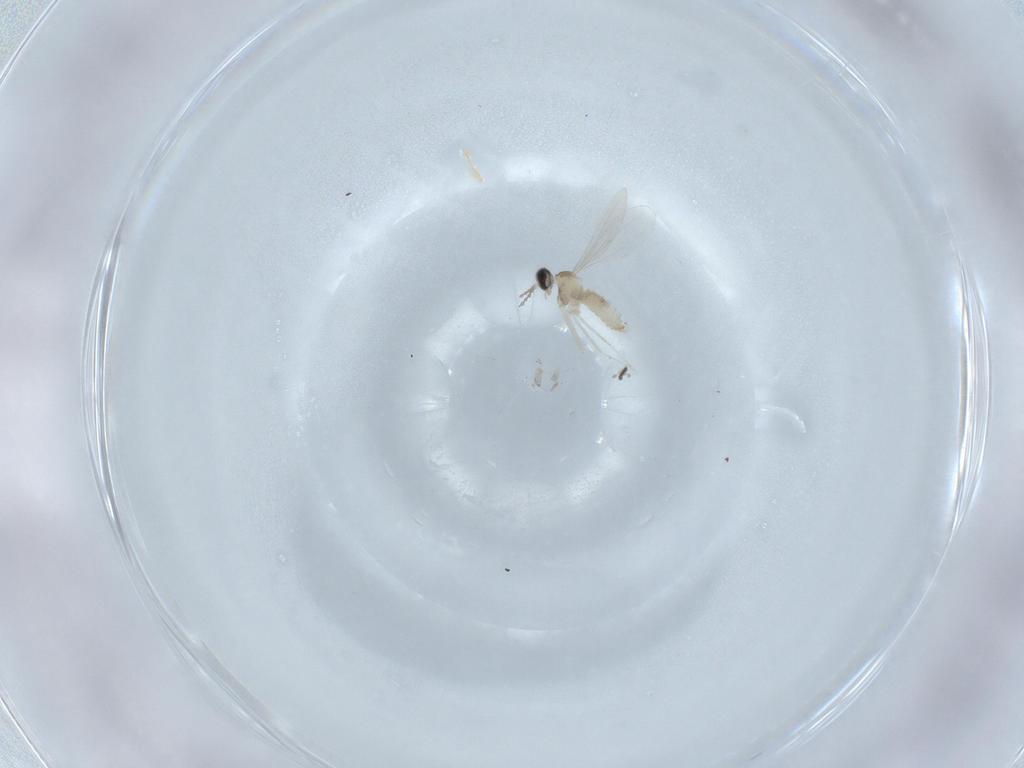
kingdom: Animalia
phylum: Arthropoda
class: Insecta
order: Diptera
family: Cecidomyiidae
